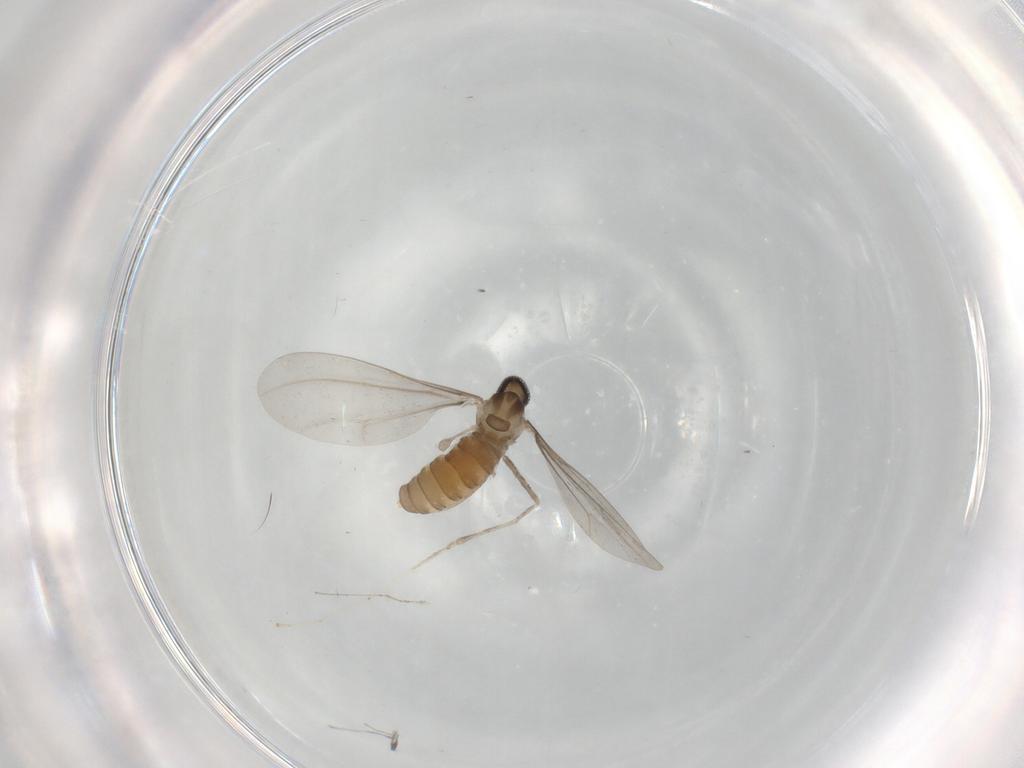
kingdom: Animalia
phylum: Arthropoda
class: Insecta
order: Diptera
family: Cecidomyiidae
